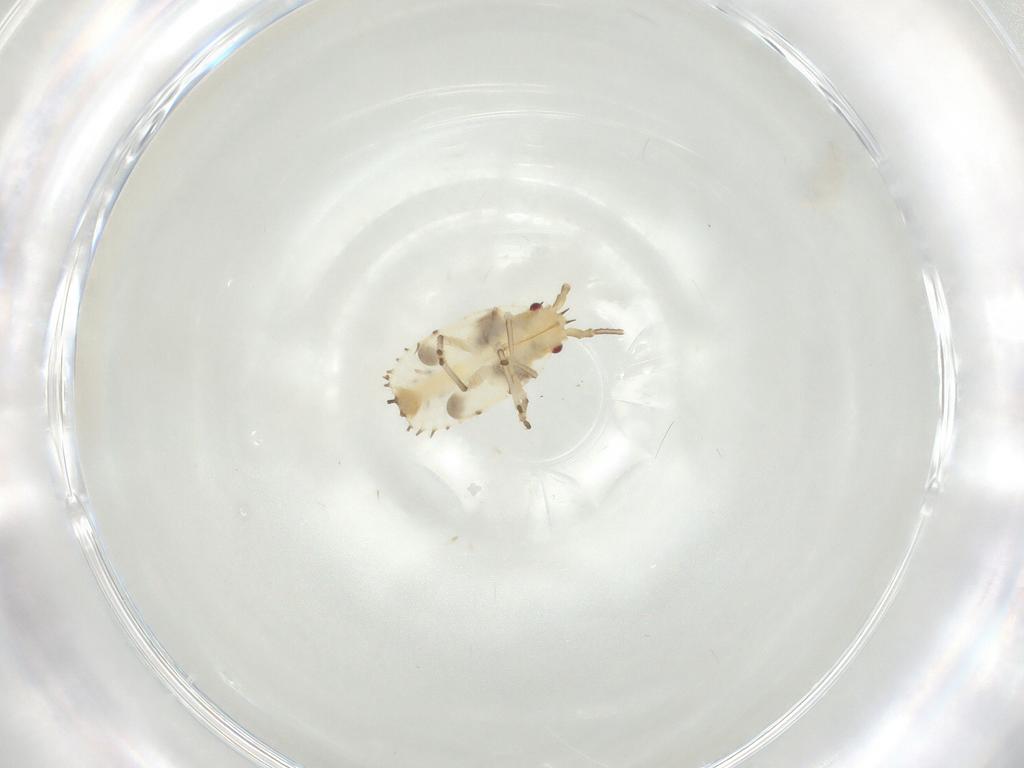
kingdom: Animalia
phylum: Arthropoda
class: Insecta
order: Hemiptera
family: Tingidae
